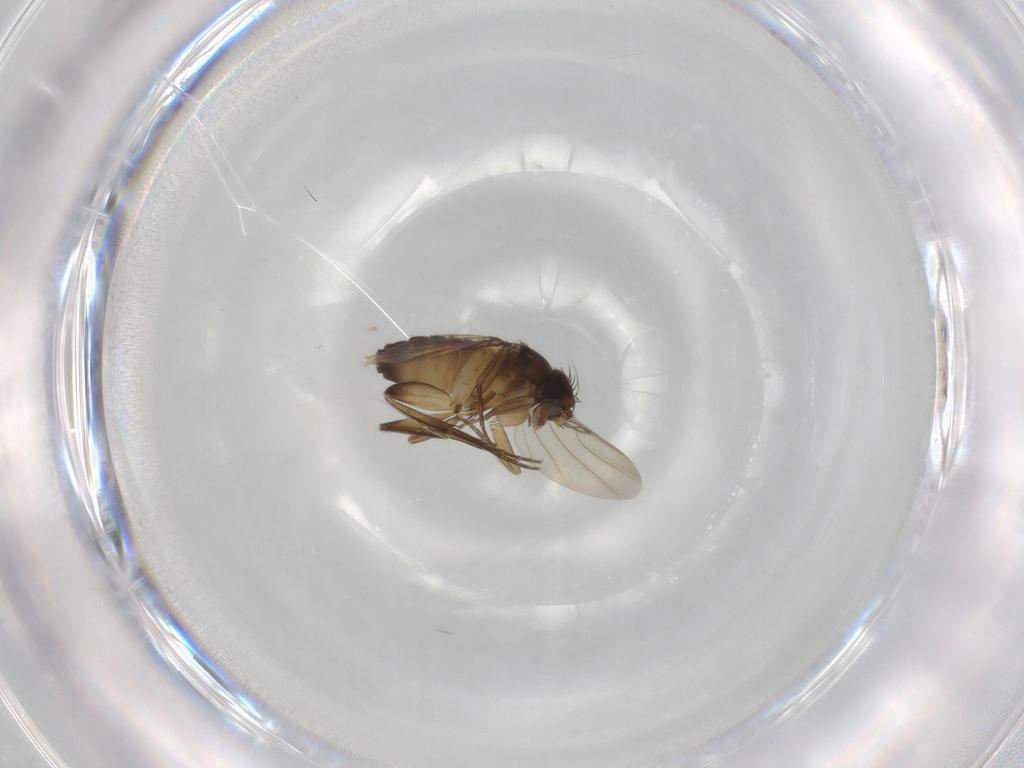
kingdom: Animalia
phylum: Arthropoda
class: Insecta
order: Diptera
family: Phoridae
